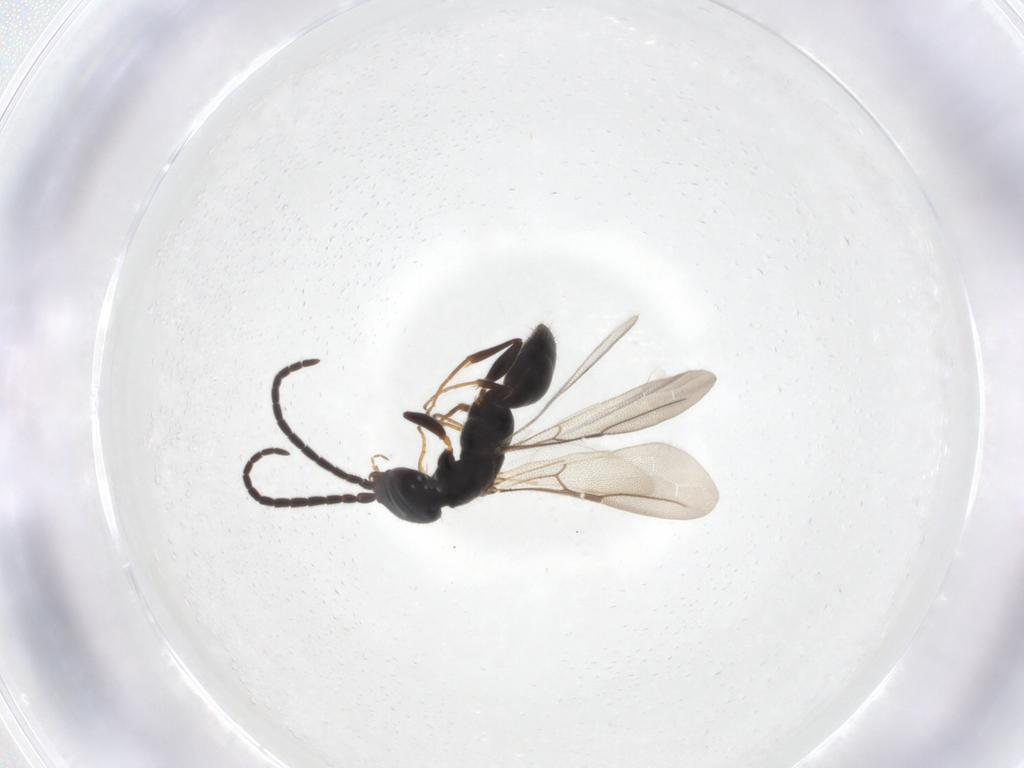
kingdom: Animalia
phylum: Arthropoda
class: Insecta
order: Hymenoptera
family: Bethylidae
